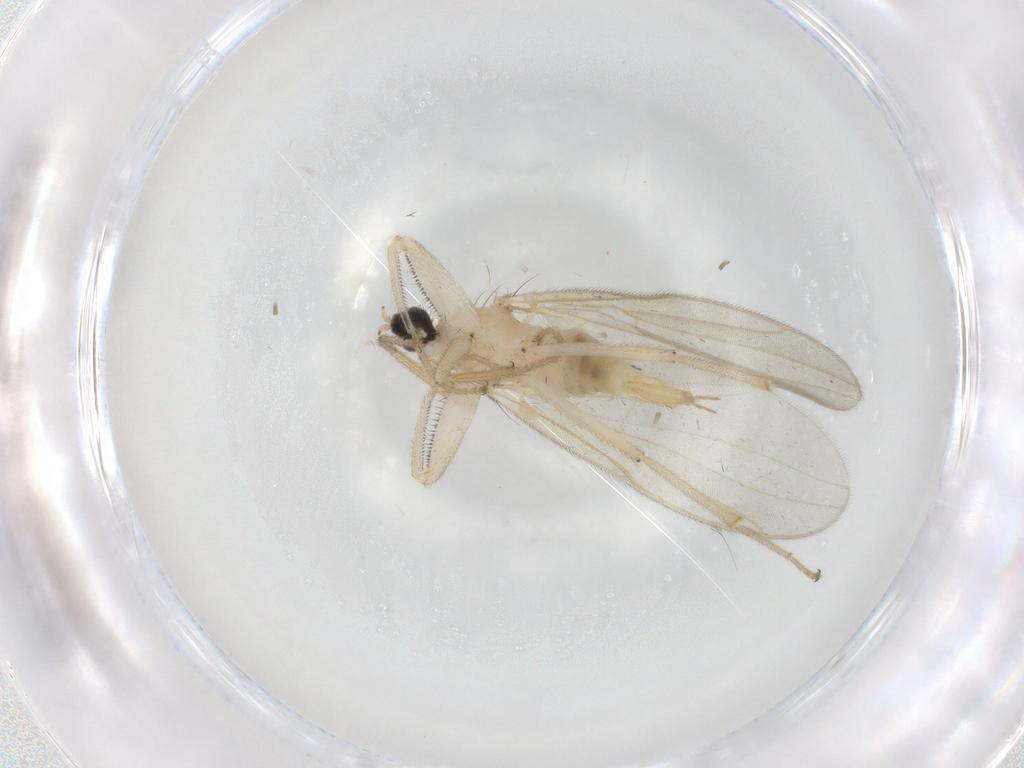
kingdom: Animalia
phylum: Arthropoda
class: Insecta
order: Diptera
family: Hybotidae
